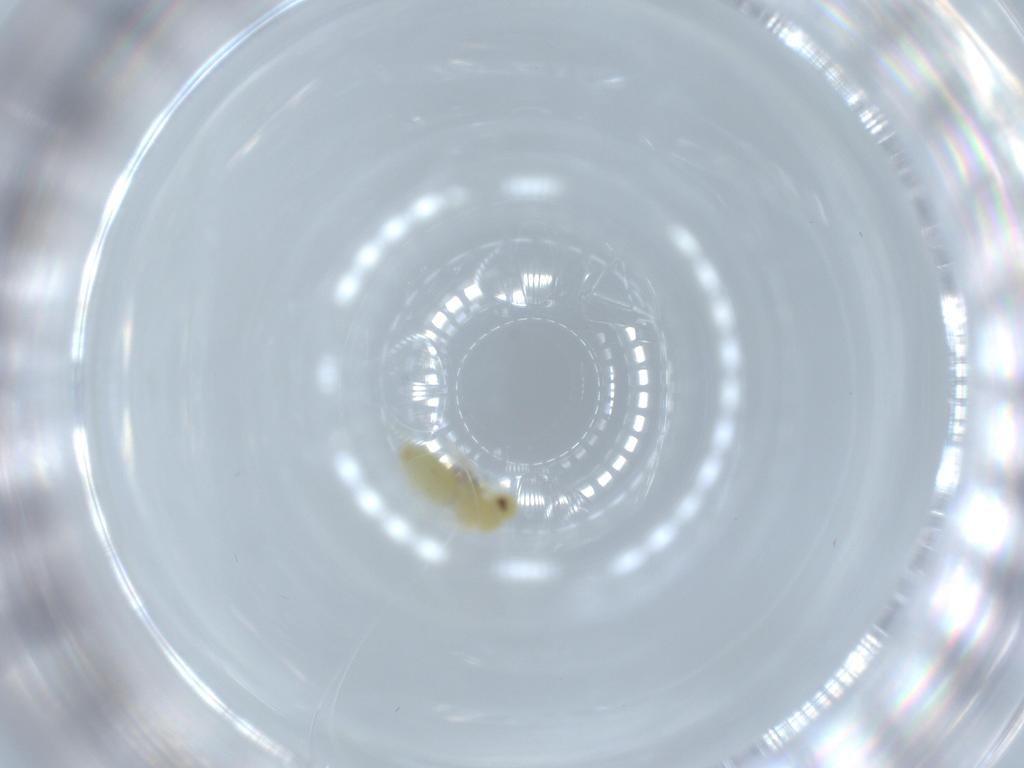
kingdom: Animalia
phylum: Arthropoda
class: Insecta
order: Hemiptera
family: Aleyrodidae
